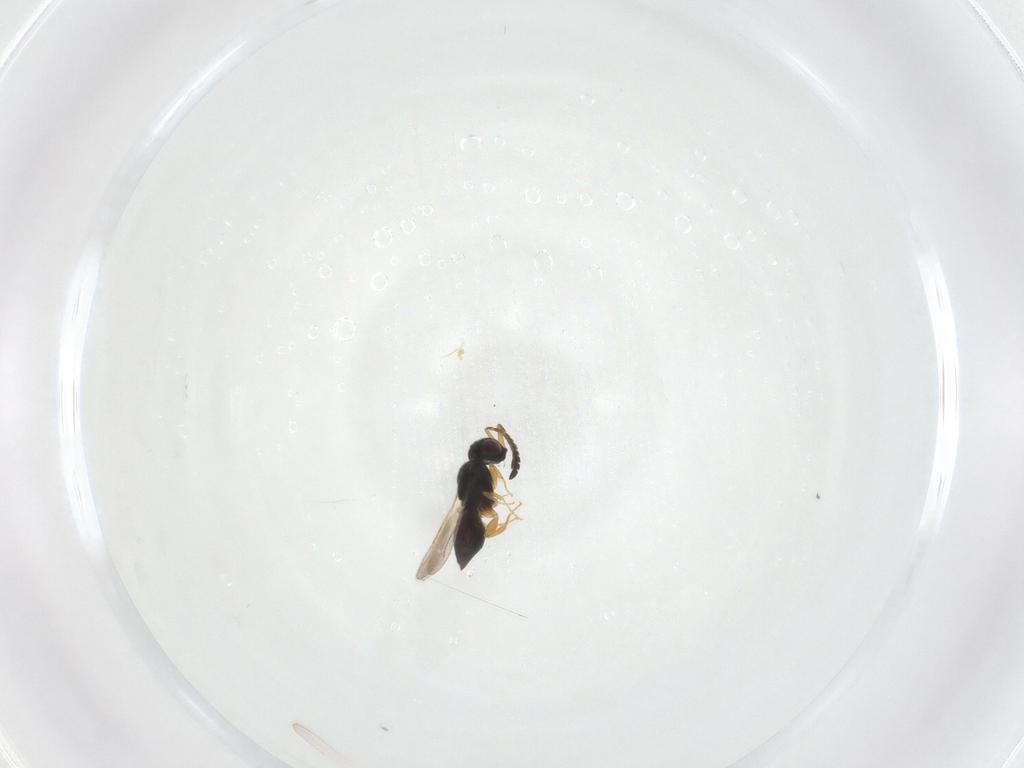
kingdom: Animalia
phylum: Arthropoda
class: Insecta
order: Hymenoptera
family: Ceraphronidae
